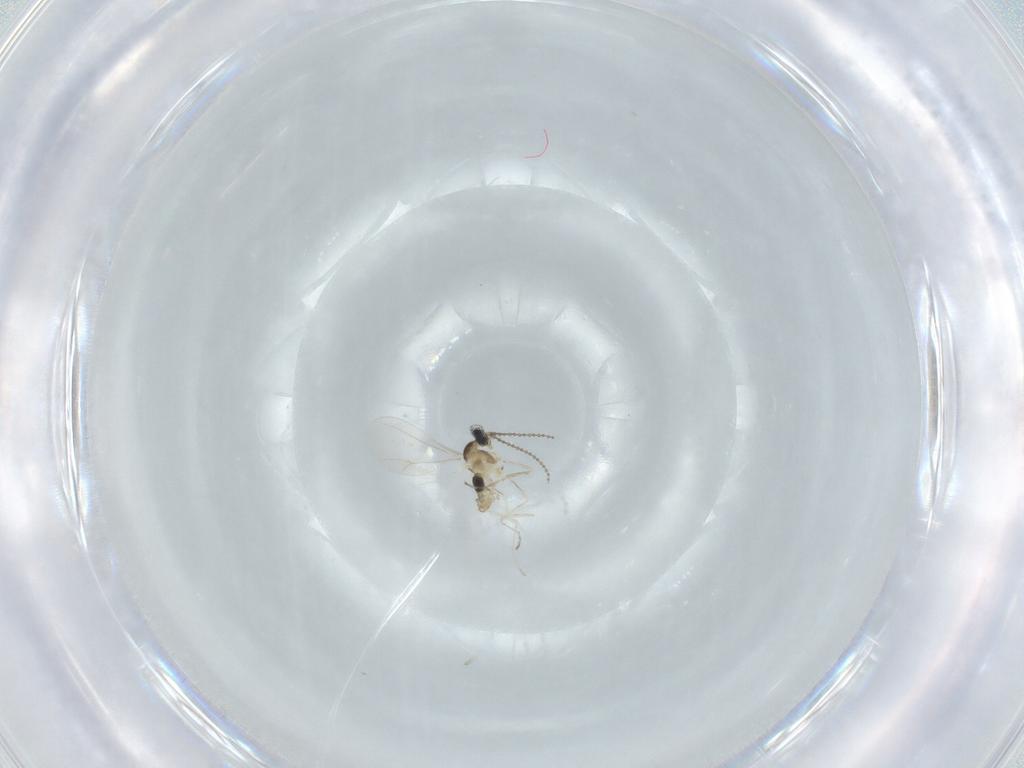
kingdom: Animalia
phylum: Arthropoda
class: Insecta
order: Diptera
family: Cecidomyiidae
